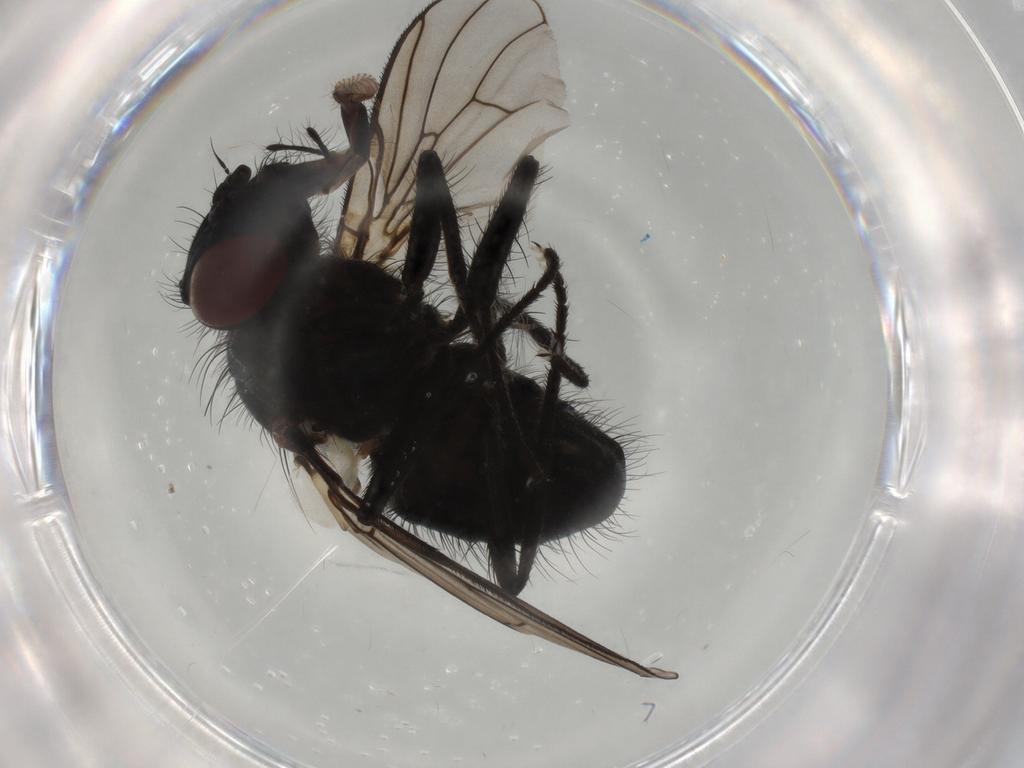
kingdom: Animalia
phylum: Arthropoda
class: Insecta
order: Diptera
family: Muscidae
